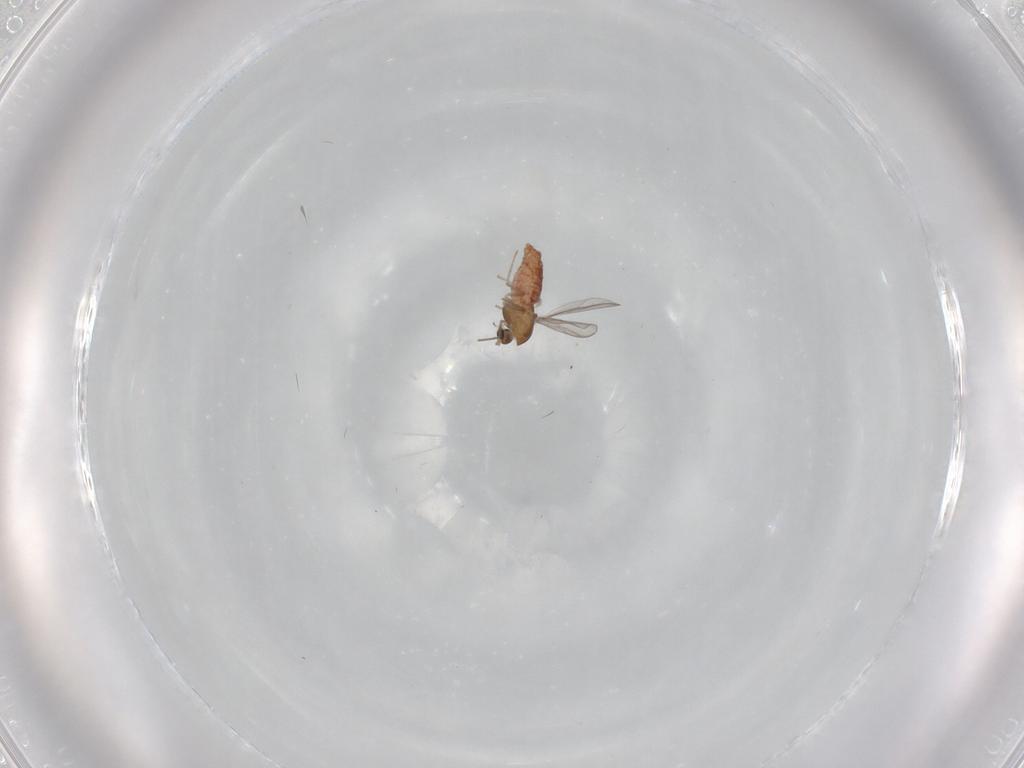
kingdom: Animalia
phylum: Arthropoda
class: Insecta
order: Diptera
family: Chironomidae
